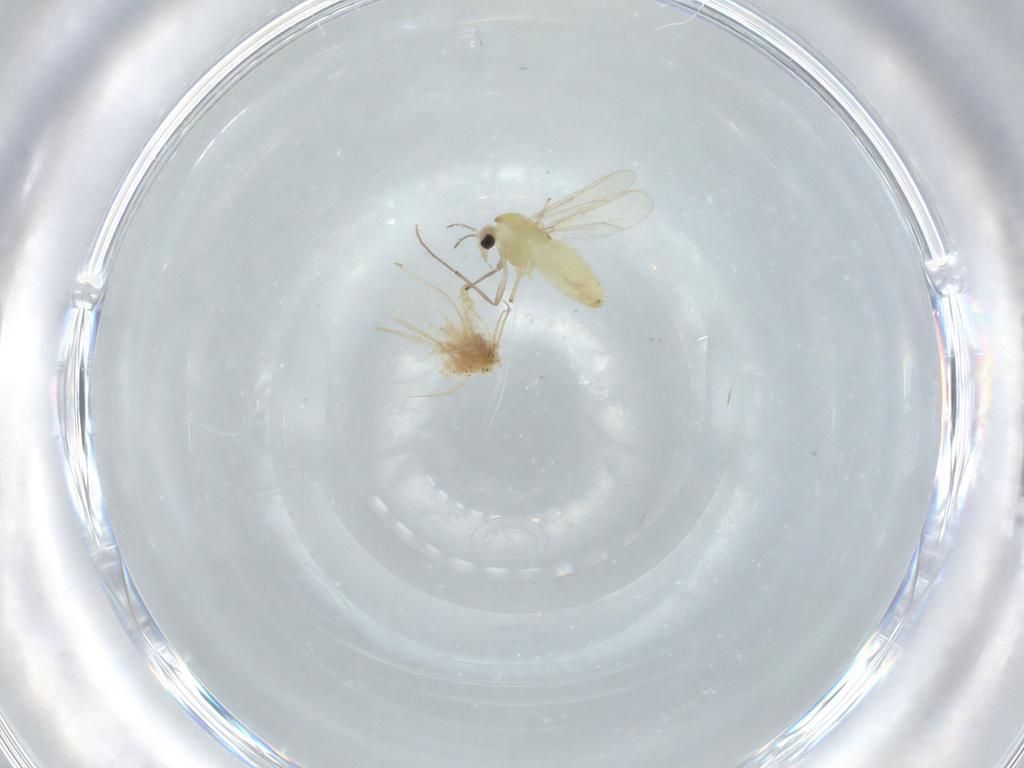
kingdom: Animalia
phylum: Arthropoda
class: Insecta
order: Diptera
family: Chironomidae
